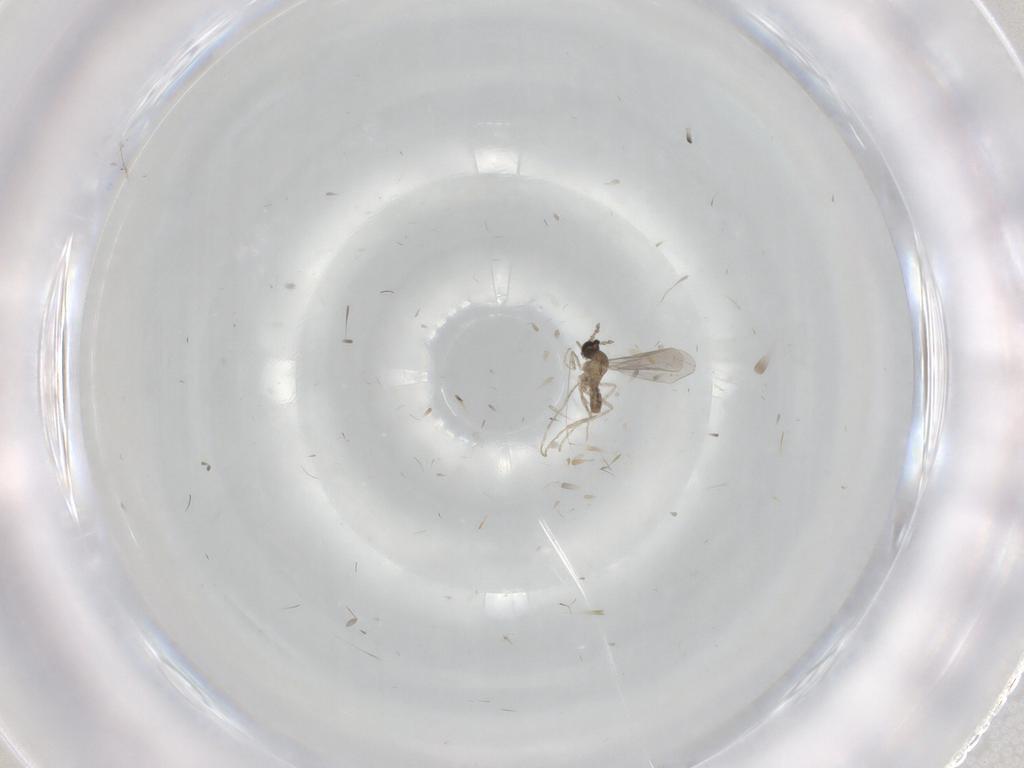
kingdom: Animalia
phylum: Arthropoda
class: Insecta
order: Diptera
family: Cecidomyiidae
